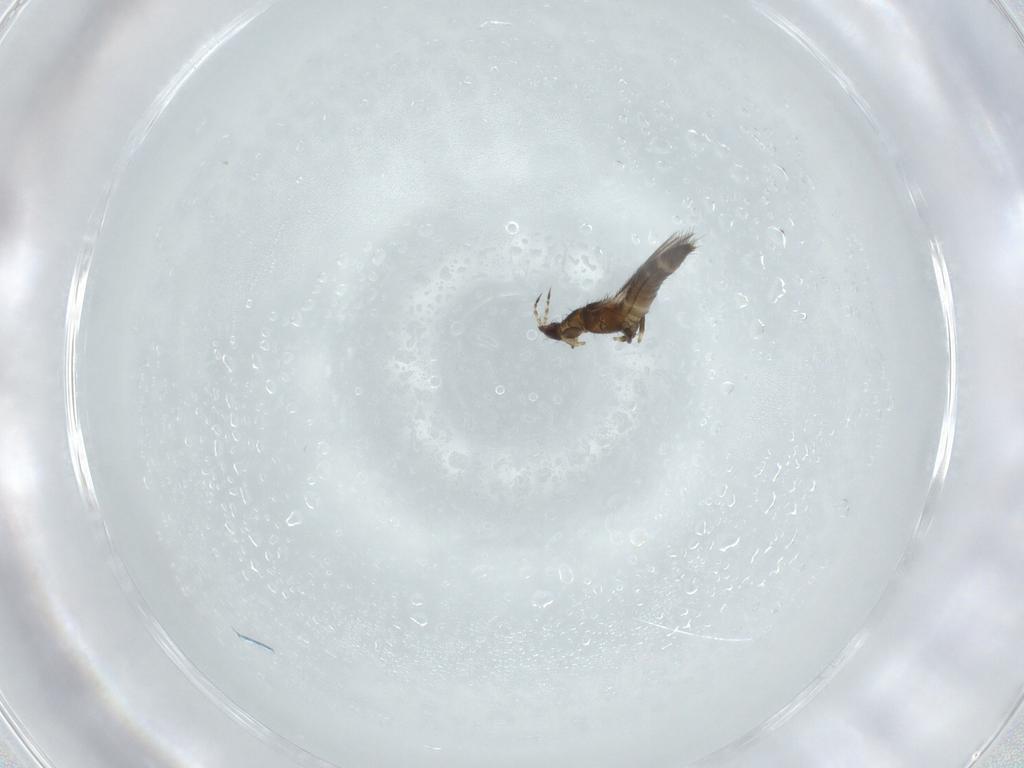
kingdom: Animalia
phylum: Arthropoda
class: Insecta
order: Thysanoptera
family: Thripidae
